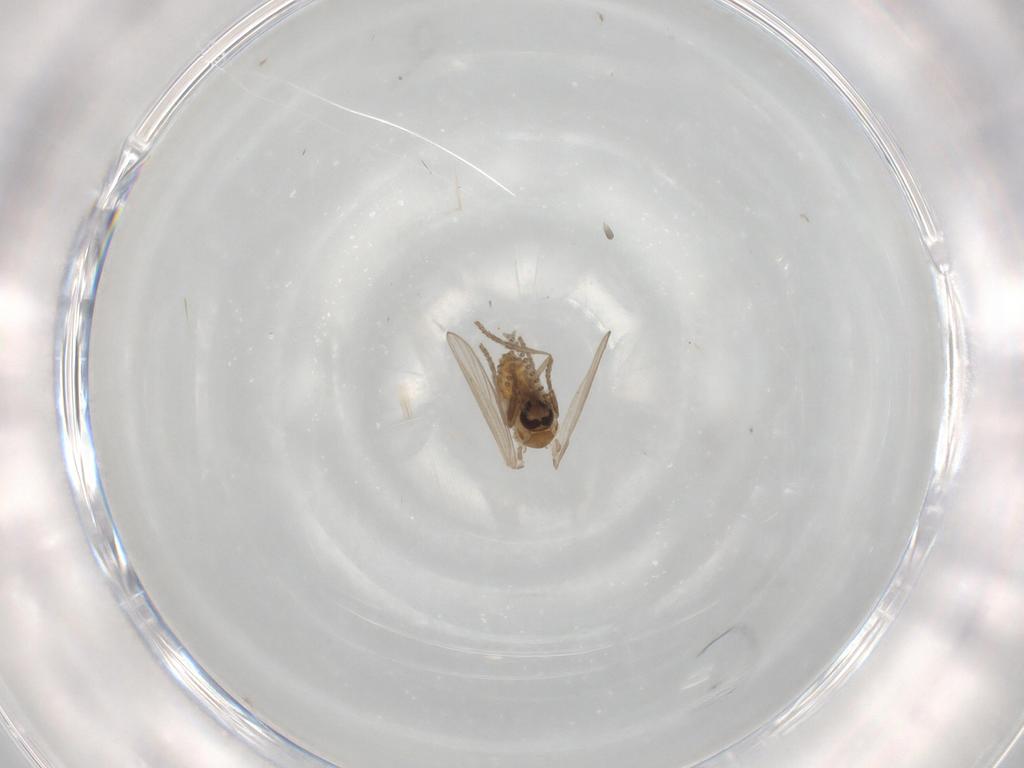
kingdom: Animalia
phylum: Arthropoda
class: Insecta
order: Diptera
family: Psychodidae
